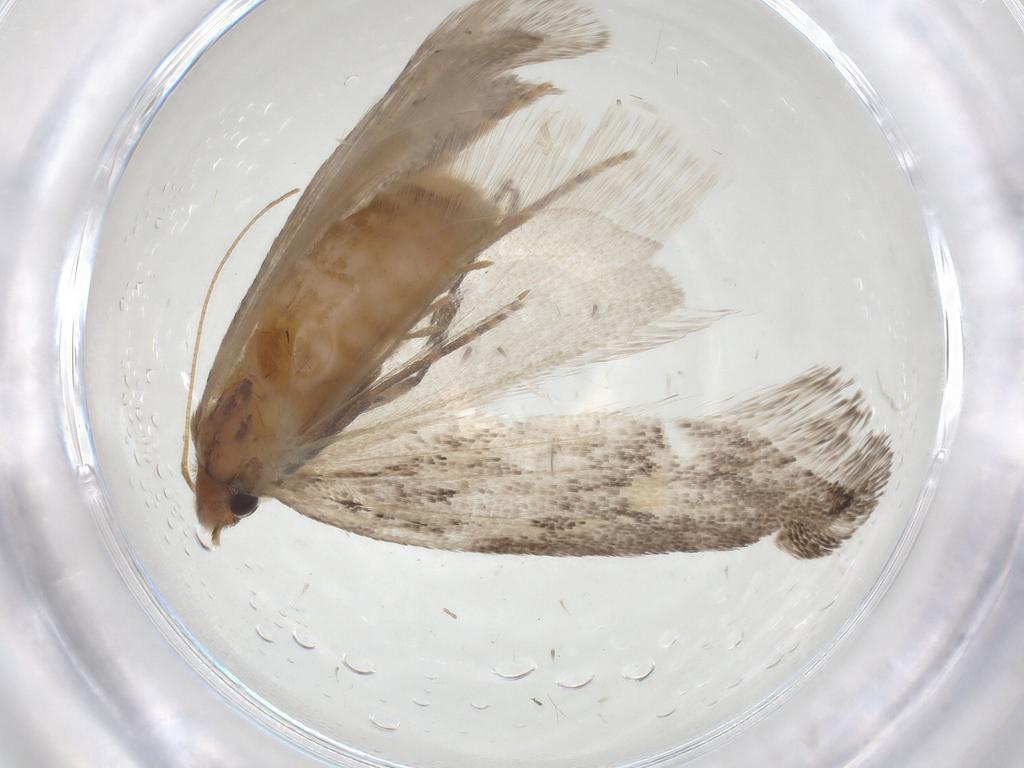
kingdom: Animalia
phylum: Arthropoda
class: Insecta
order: Lepidoptera
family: Carposinidae
